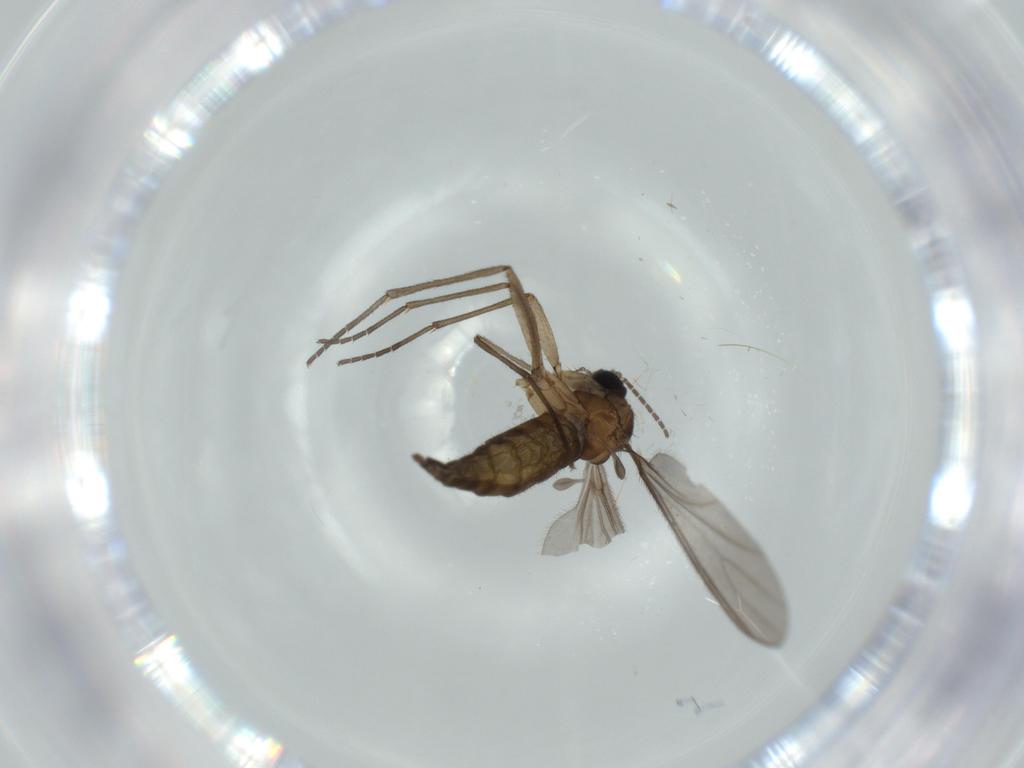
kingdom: Animalia
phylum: Arthropoda
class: Insecta
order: Diptera
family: Sciaridae
